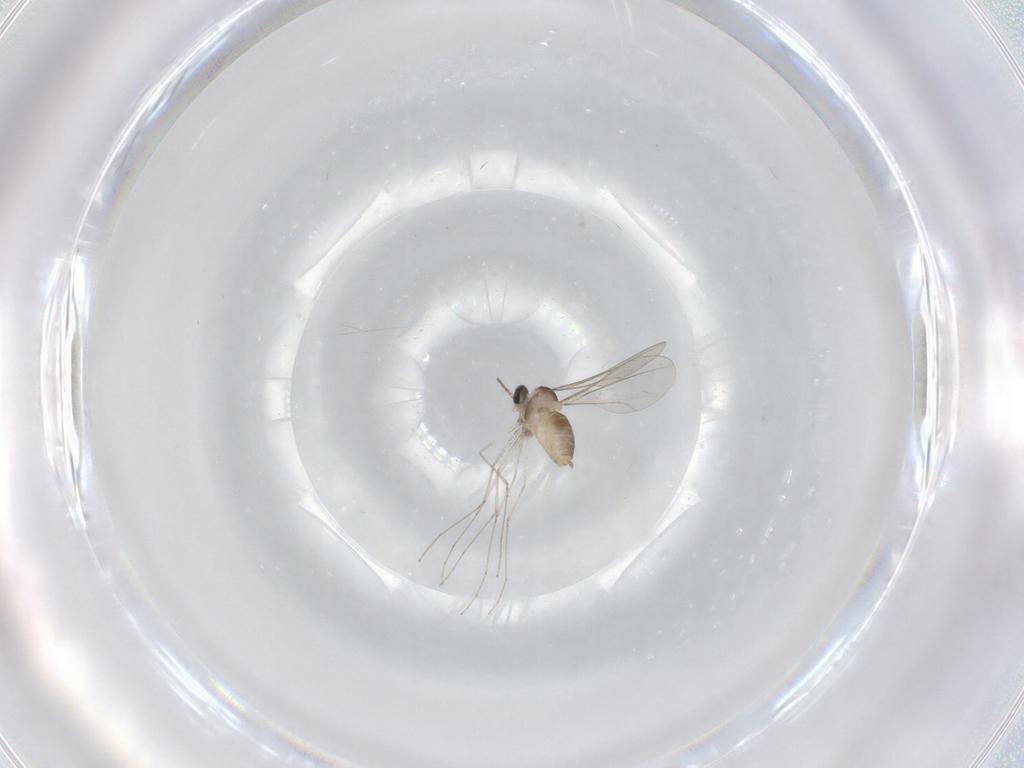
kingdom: Animalia
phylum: Arthropoda
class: Insecta
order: Diptera
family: Cecidomyiidae
